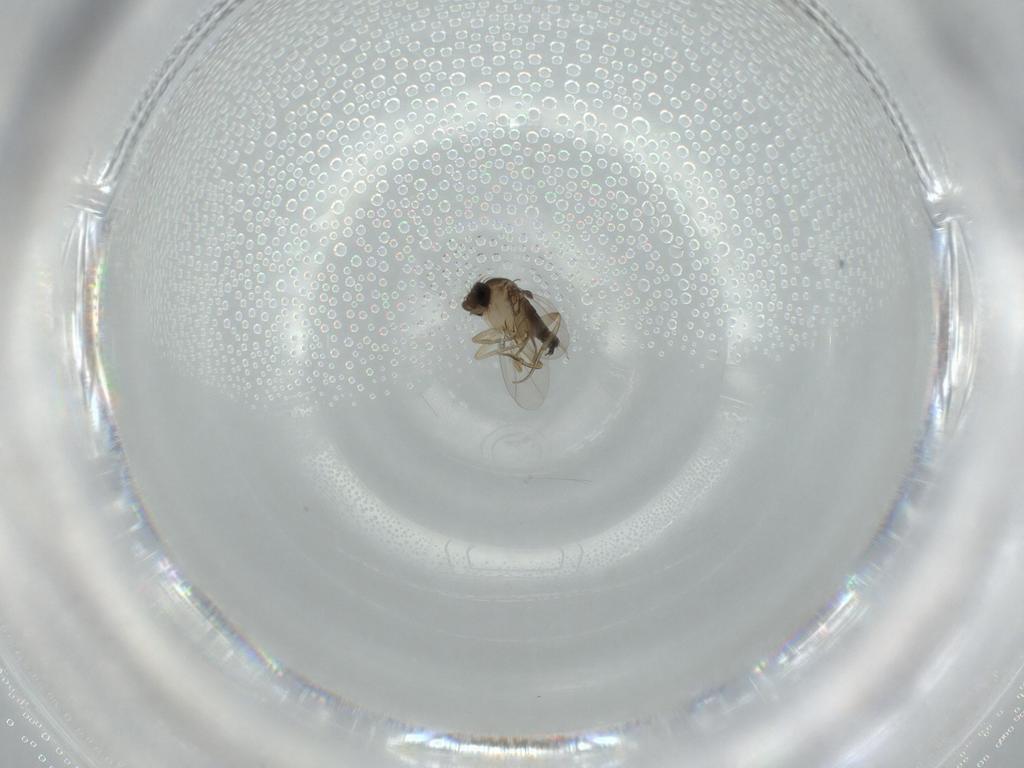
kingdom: Animalia
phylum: Arthropoda
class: Insecta
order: Diptera
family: Phoridae
